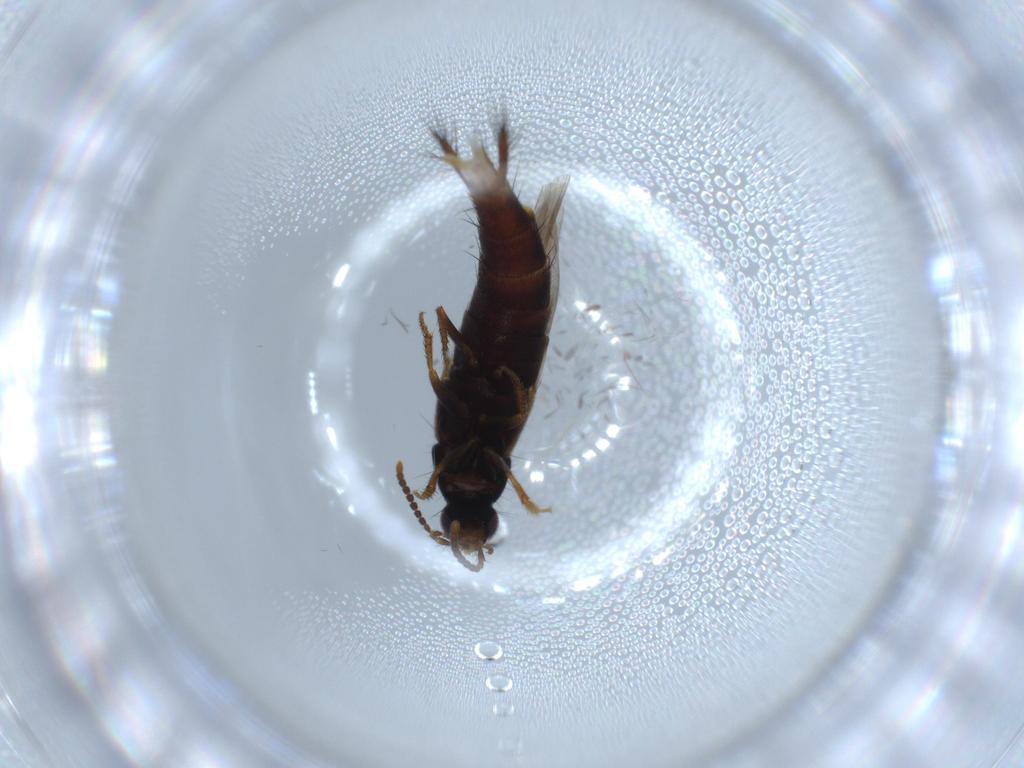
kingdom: Animalia
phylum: Arthropoda
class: Insecta
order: Coleoptera
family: Staphylinidae
